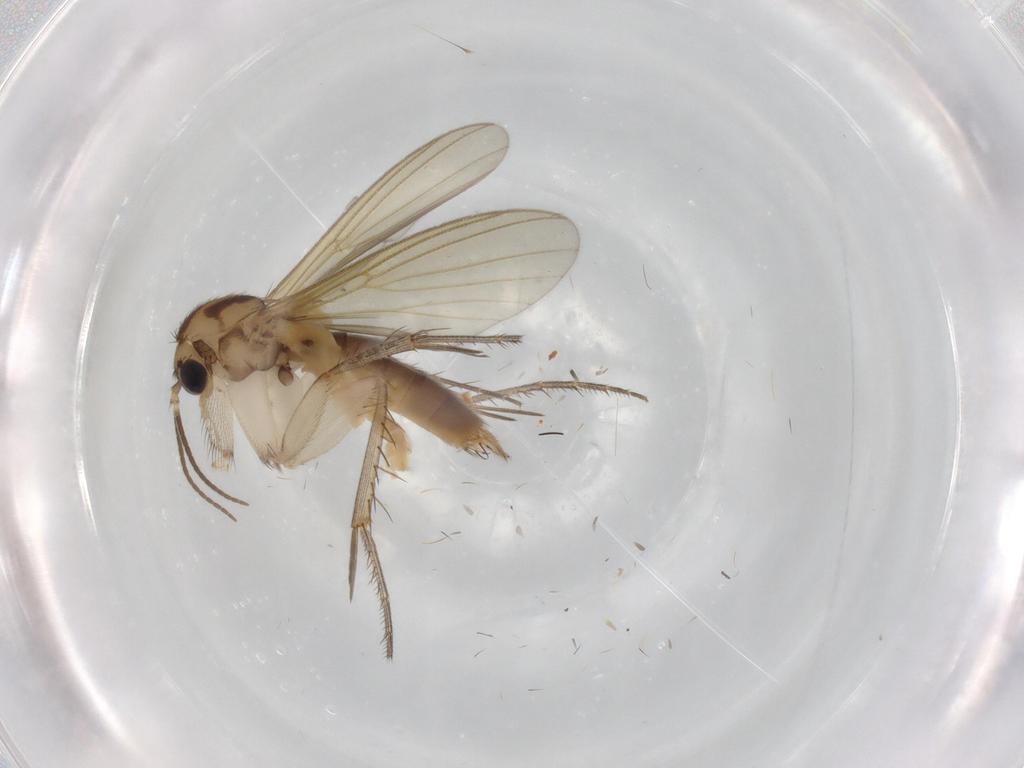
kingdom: Animalia
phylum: Arthropoda
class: Insecta
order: Diptera
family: Mycetophilidae
